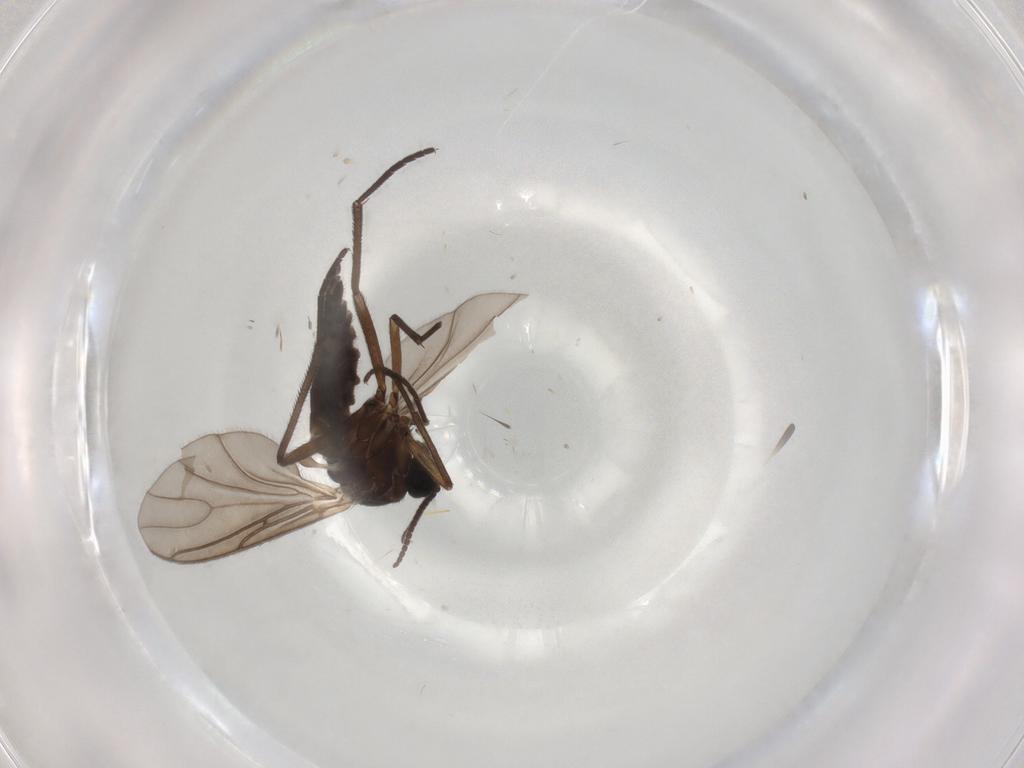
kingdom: Animalia
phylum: Arthropoda
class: Insecta
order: Diptera
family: Sciaridae
